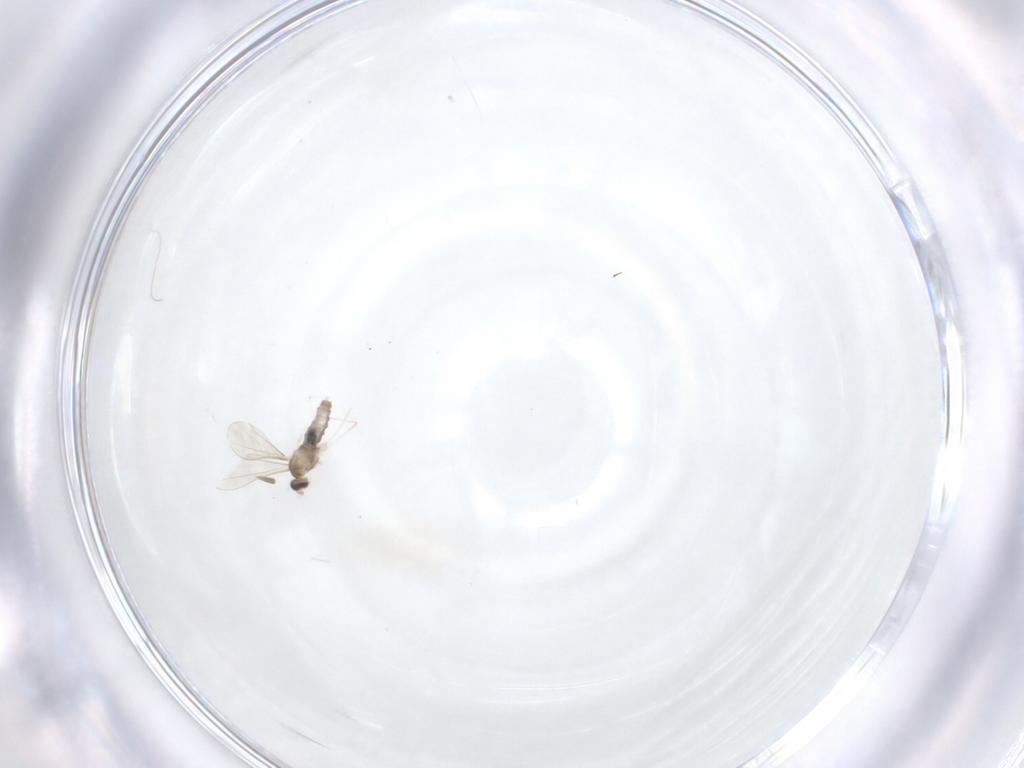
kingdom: Animalia
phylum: Arthropoda
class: Insecta
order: Diptera
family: Cecidomyiidae
